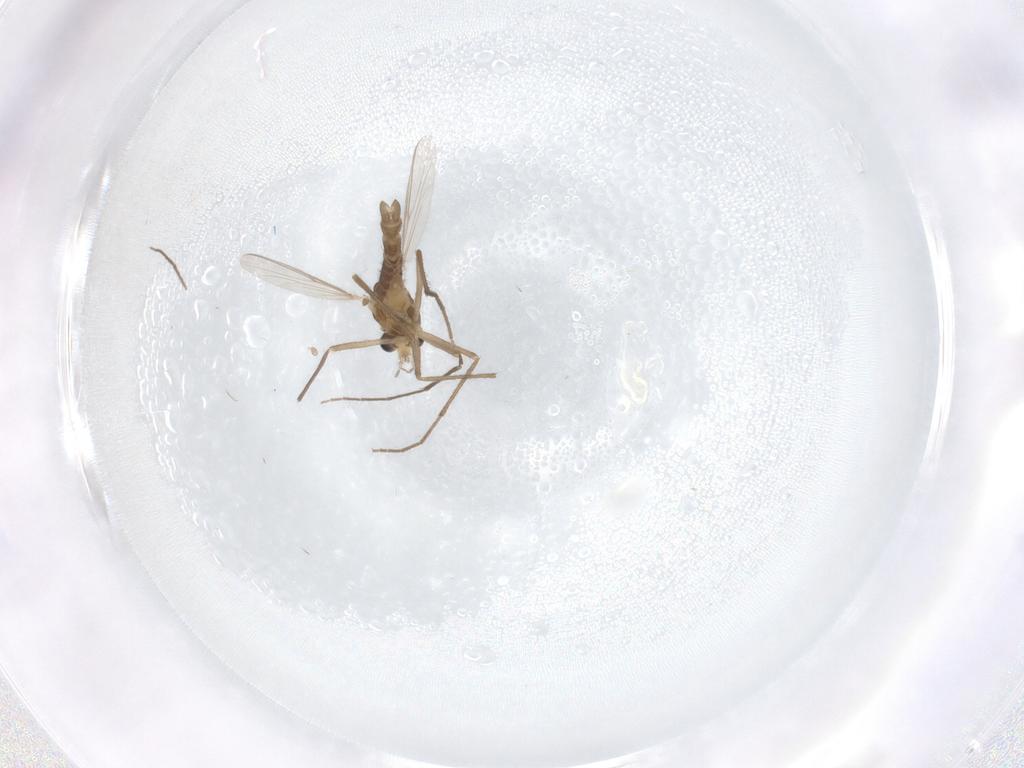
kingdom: Animalia
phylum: Arthropoda
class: Insecta
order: Diptera
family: Chironomidae
